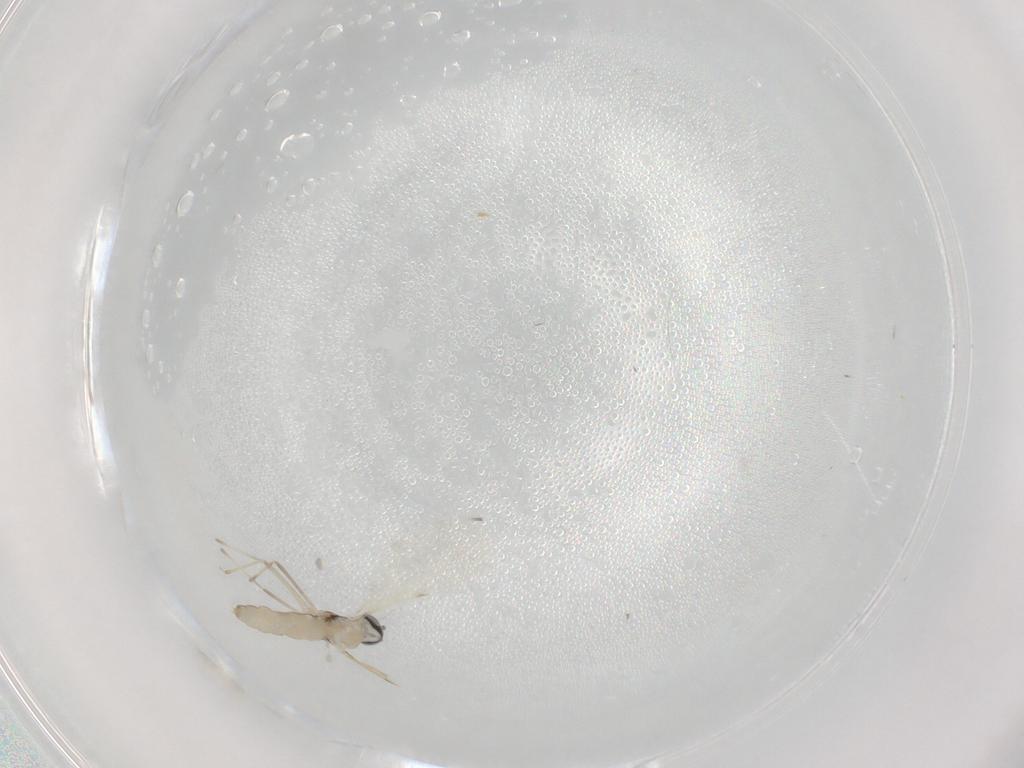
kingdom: Animalia
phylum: Arthropoda
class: Insecta
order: Diptera
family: Cecidomyiidae
